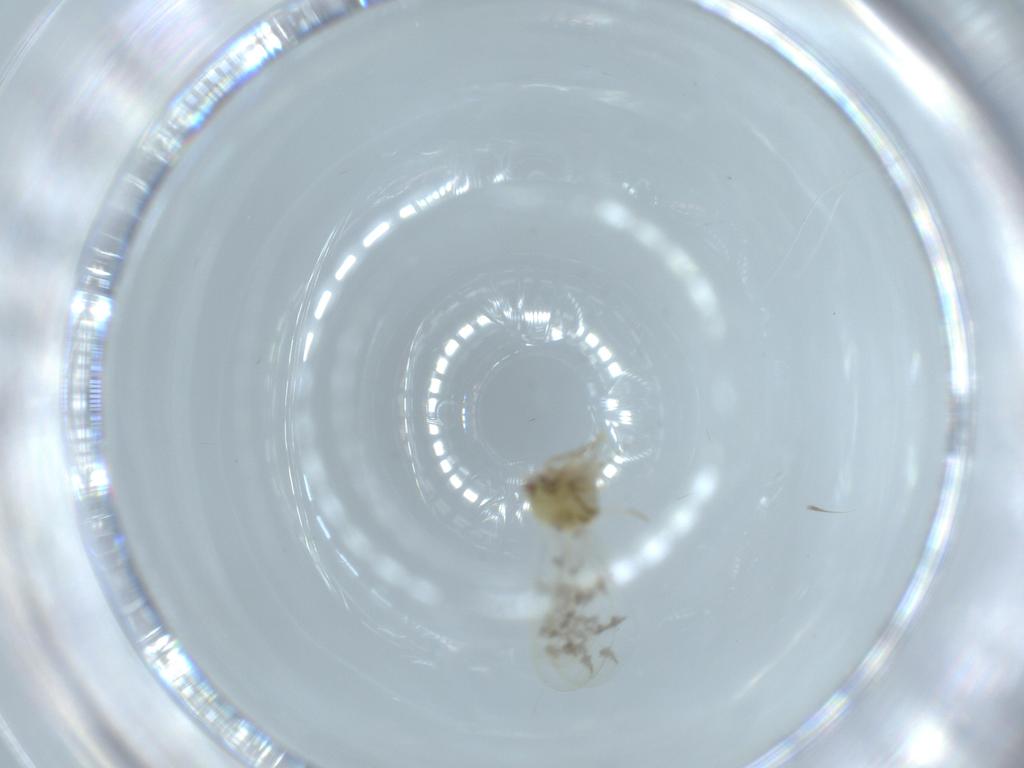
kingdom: Animalia
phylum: Arthropoda
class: Insecta
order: Hemiptera
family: Aleyrodidae
